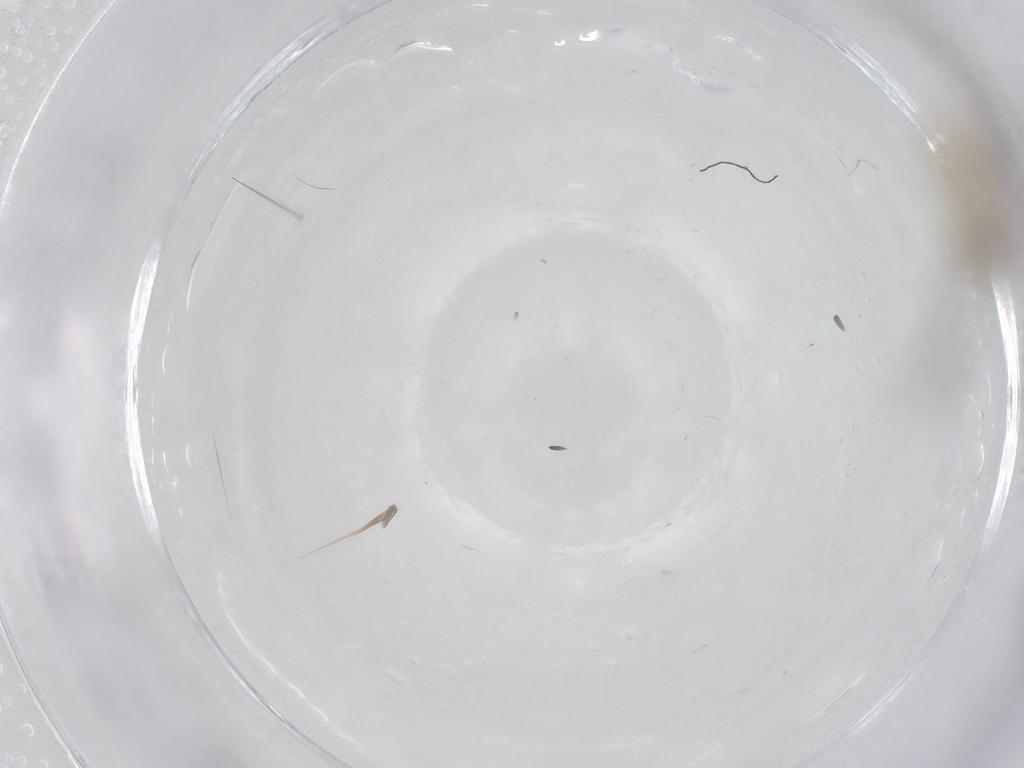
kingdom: Animalia
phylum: Arthropoda
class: Insecta
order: Diptera
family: Cecidomyiidae
